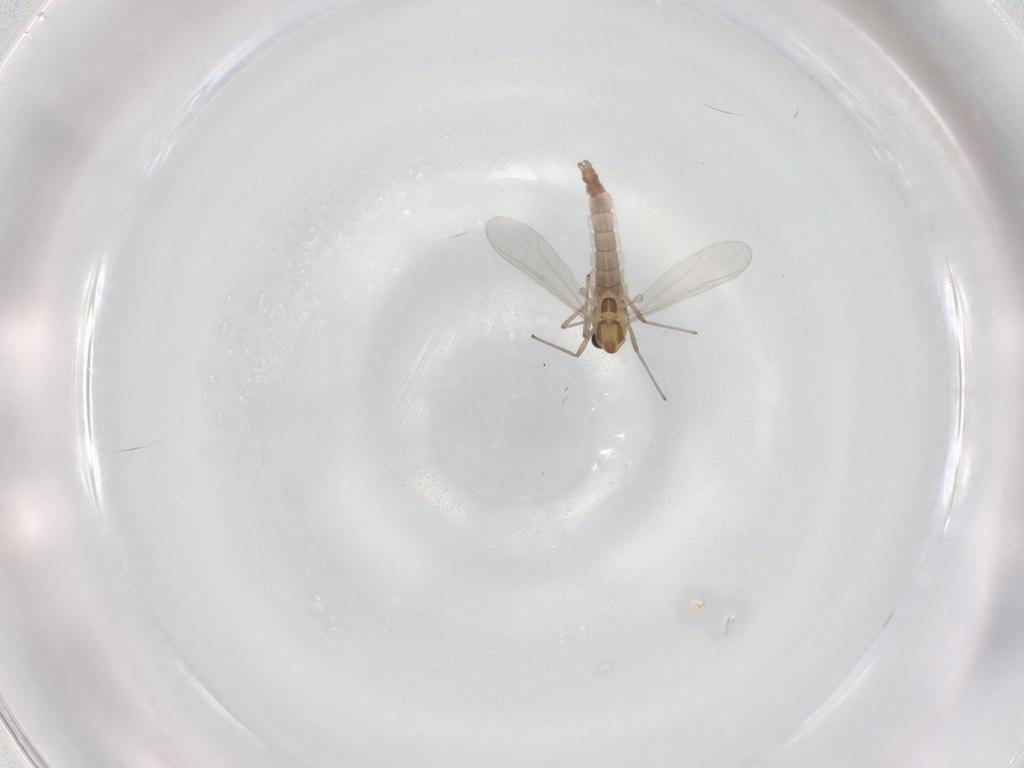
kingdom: Animalia
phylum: Arthropoda
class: Insecta
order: Diptera
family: Chironomidae
